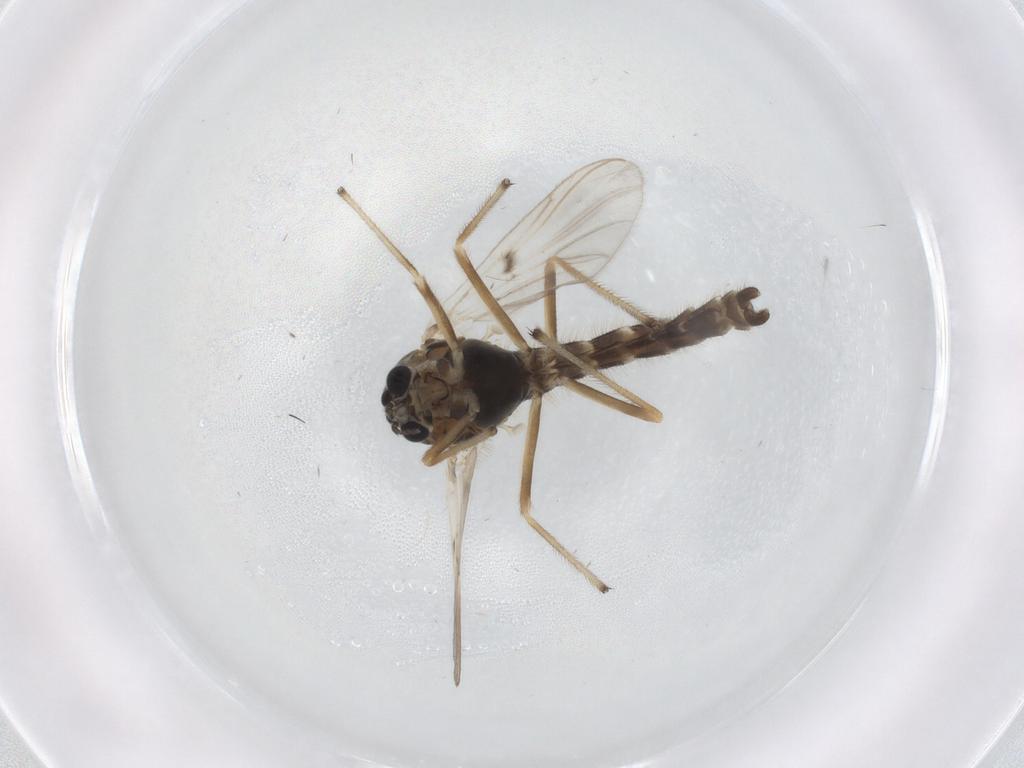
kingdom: Animalia
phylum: Arthropoda
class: Insecta
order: Diptera
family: Chironomidae
